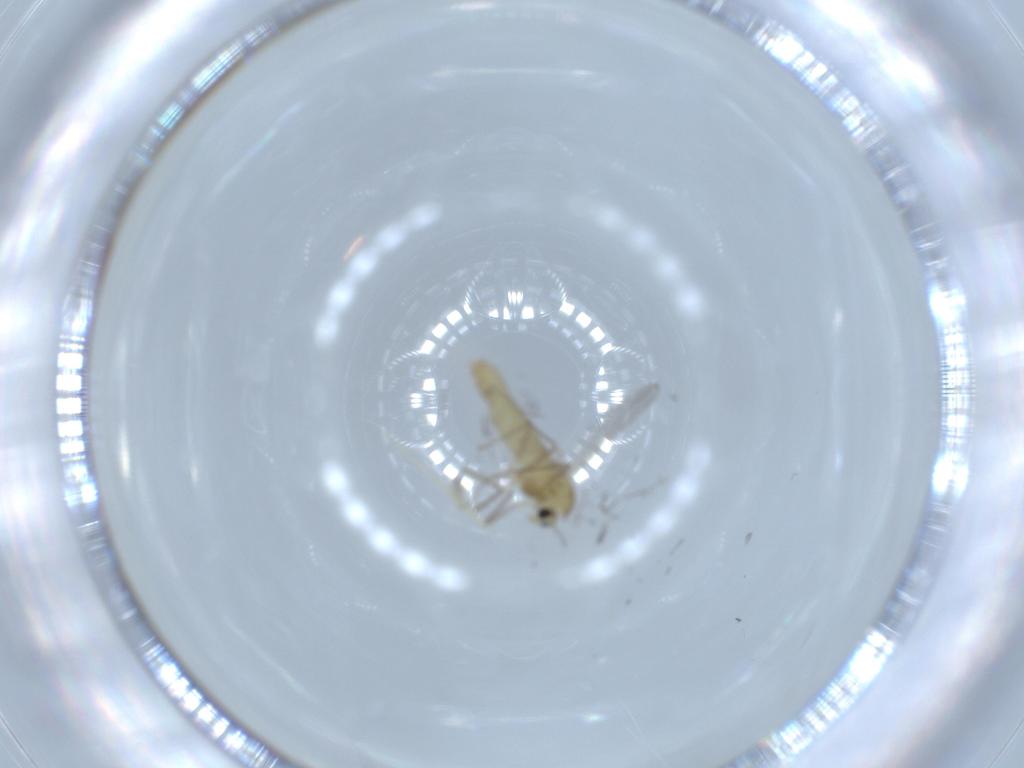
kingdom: Animalia
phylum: Arthropoda
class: Insecta
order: Diptera
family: Chironomidae
